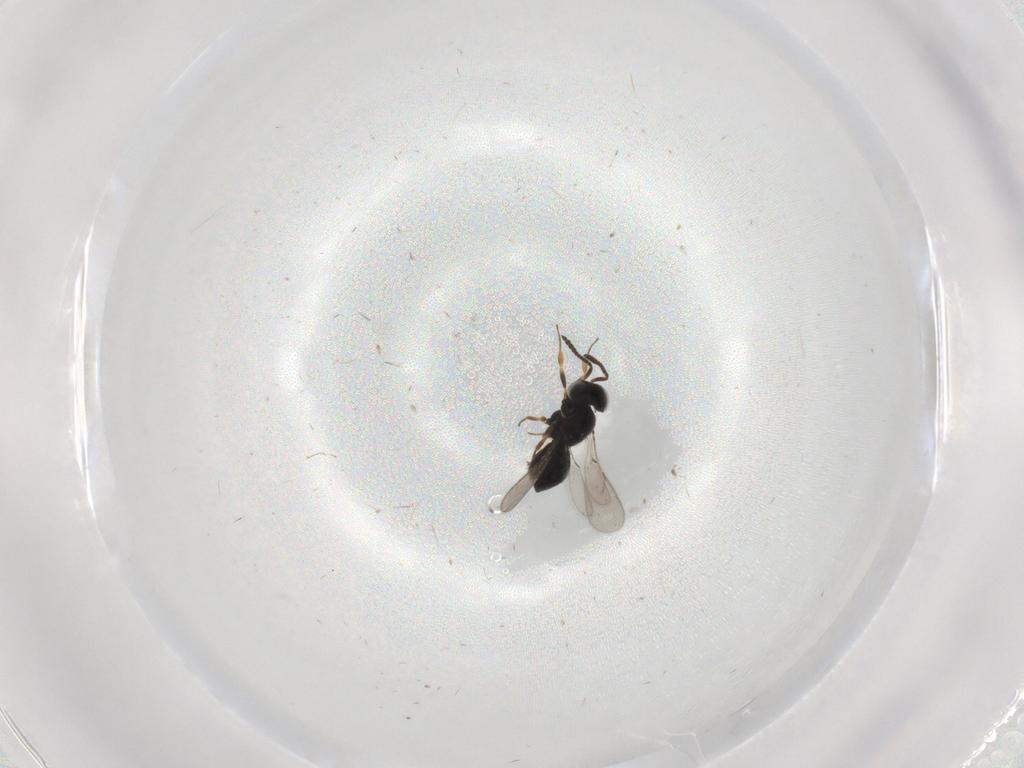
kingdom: Animalia
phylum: Arthropoda
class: Insecta
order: Hymenoptera
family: Scelionidae
